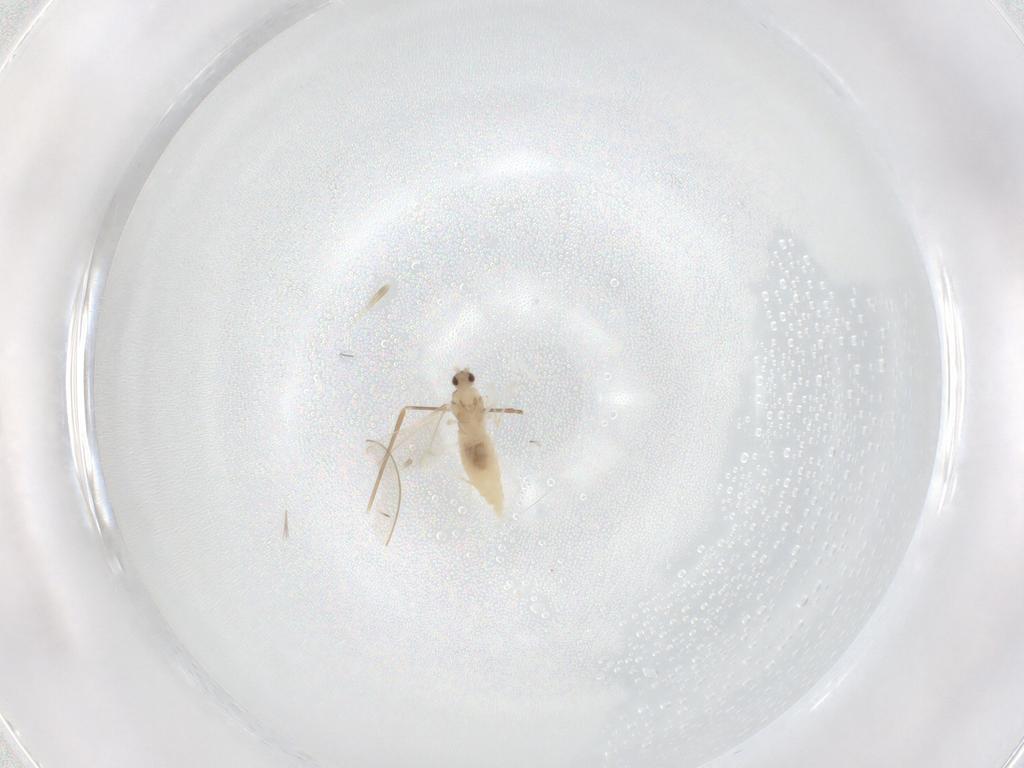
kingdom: Animalia
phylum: Arthropoda
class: Insecta
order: Diptera
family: Cecidomyiidae
